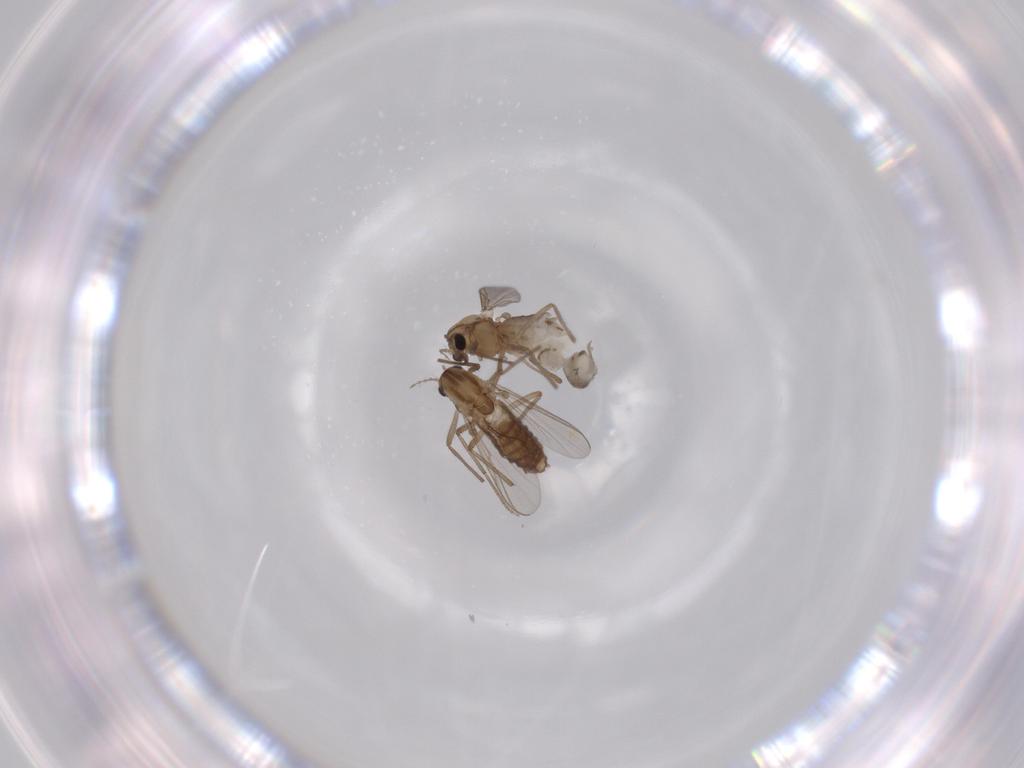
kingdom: Animalia
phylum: Arthropoda
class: Insecta
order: Diptera
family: Chironomidae
